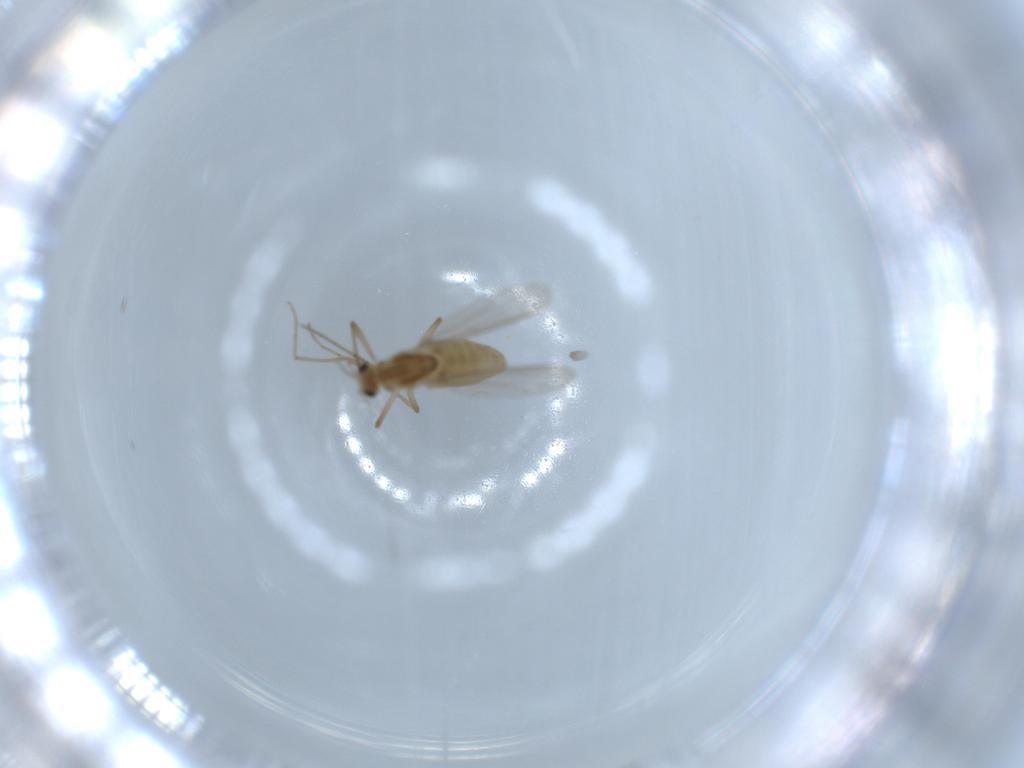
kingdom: Animalia
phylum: Arthropoda
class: Insecta
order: Diptera
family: Chironomidae
